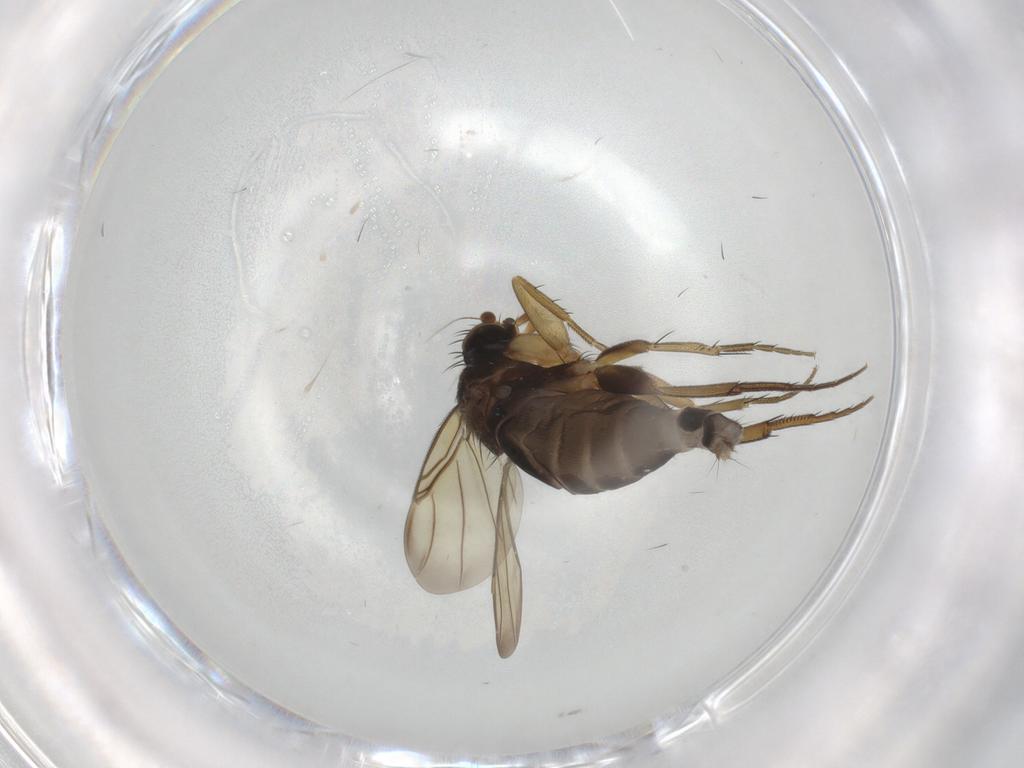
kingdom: Animalia
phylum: Arthropoda
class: Insecta
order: Diptera
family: Phoridae
